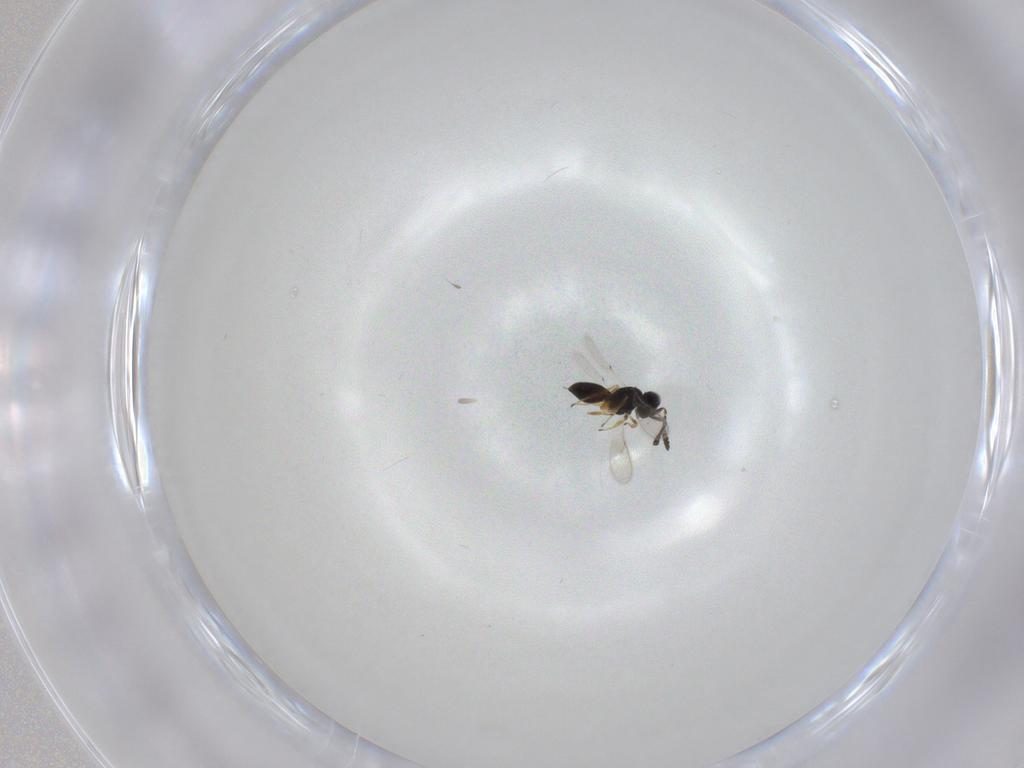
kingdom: Animalia
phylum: Arthropoda
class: Insecta
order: Hymenoptera
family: Scelionidae
